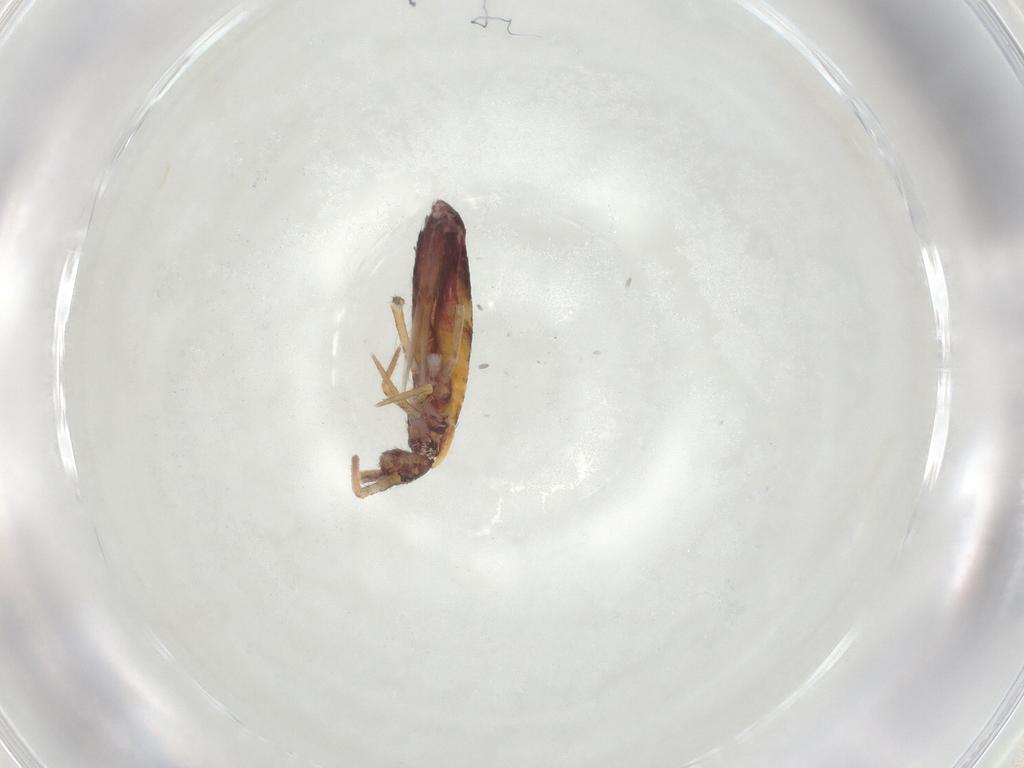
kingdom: Animalia
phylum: Arthropoda
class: Collembola
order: Entomobryomorpha
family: Entomobryidae
